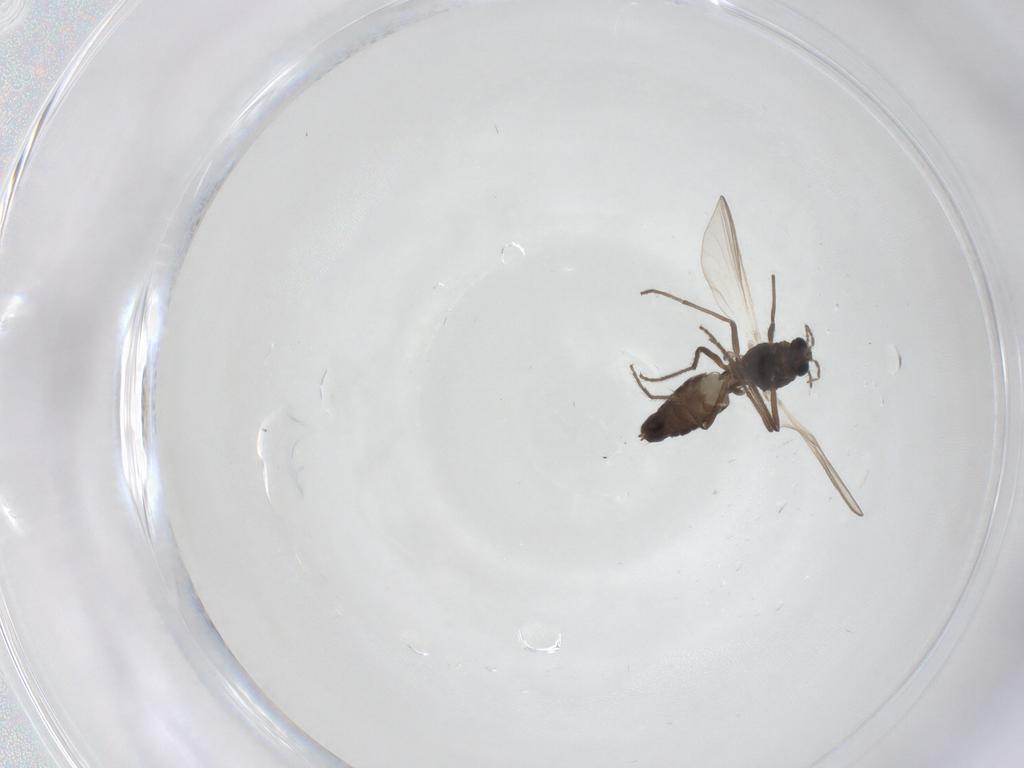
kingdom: Animalia
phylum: Arthropoda
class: Insecta
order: Diptera
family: Chironomidae
